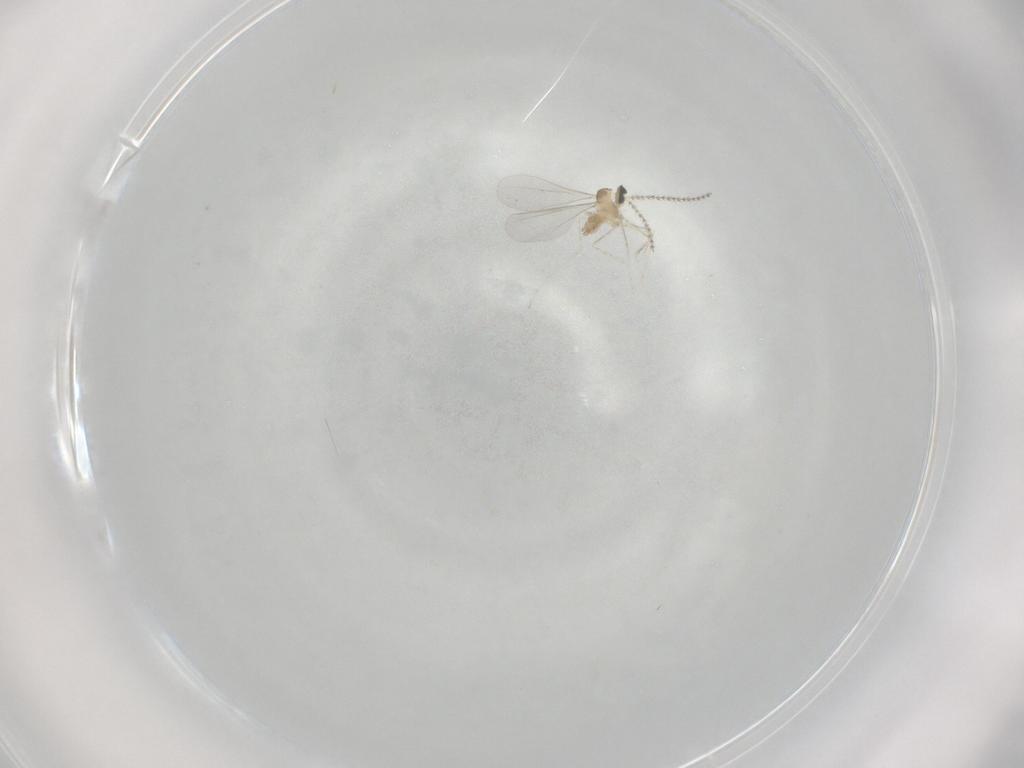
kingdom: Animalia
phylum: Arthropoda
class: Insecta
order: Diptera
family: Cecidomyiidae
